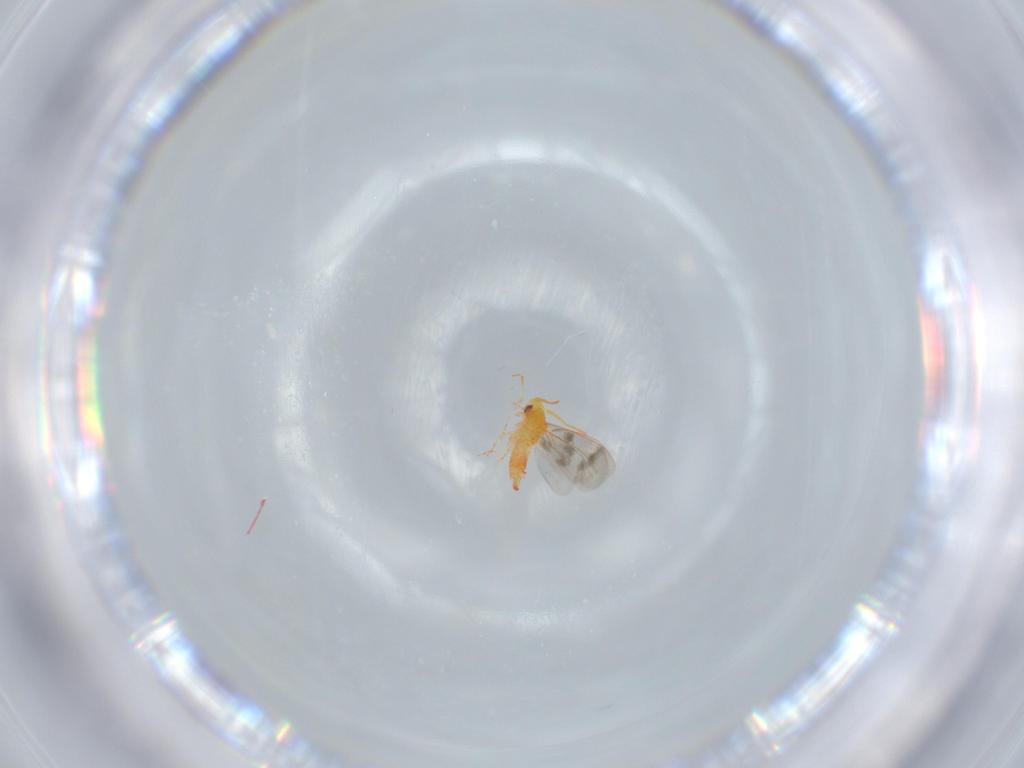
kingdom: Animalia
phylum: Arthropoda
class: Insecta
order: Hemiptera
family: Aleyrodidae
